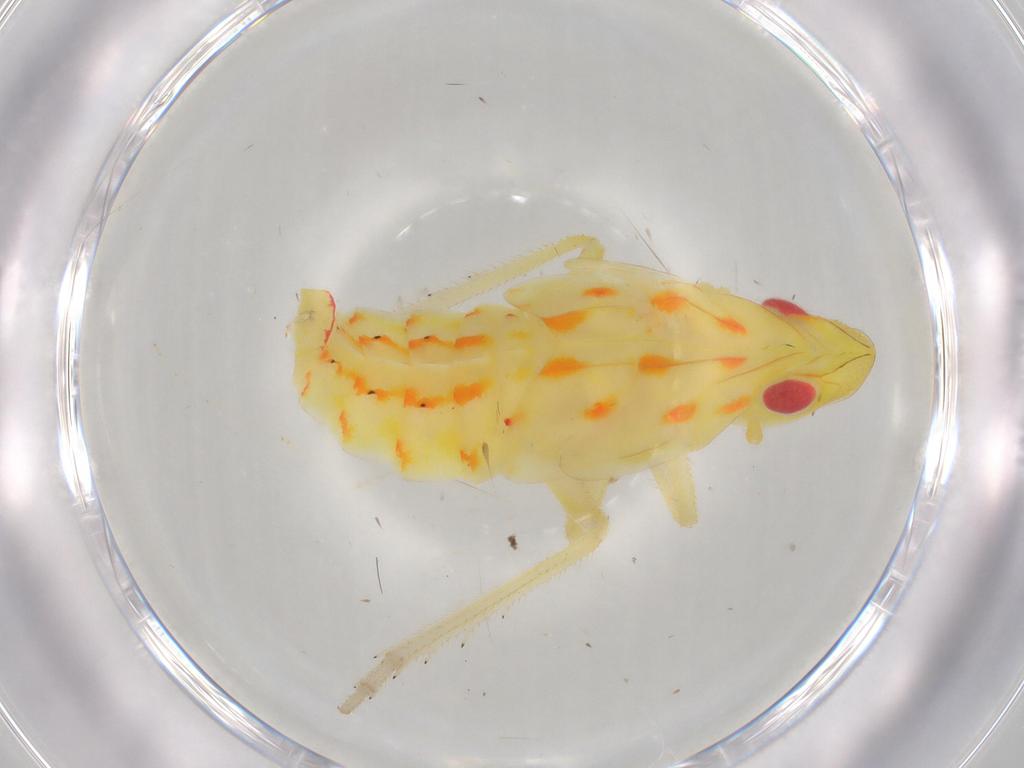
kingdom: Animalia
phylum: Arthropoda
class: Insecta
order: Hemiptera
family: Tropiduchidae
